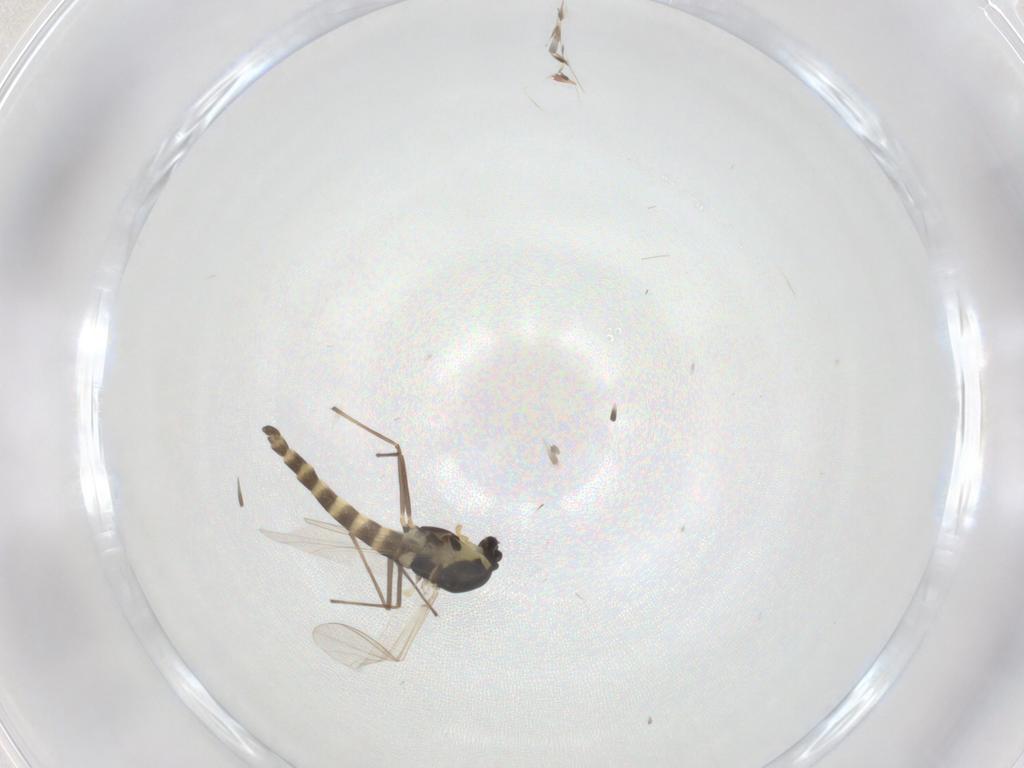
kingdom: Animalia
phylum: Arthropoda
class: Insecta
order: Diptera
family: Chironomidae
